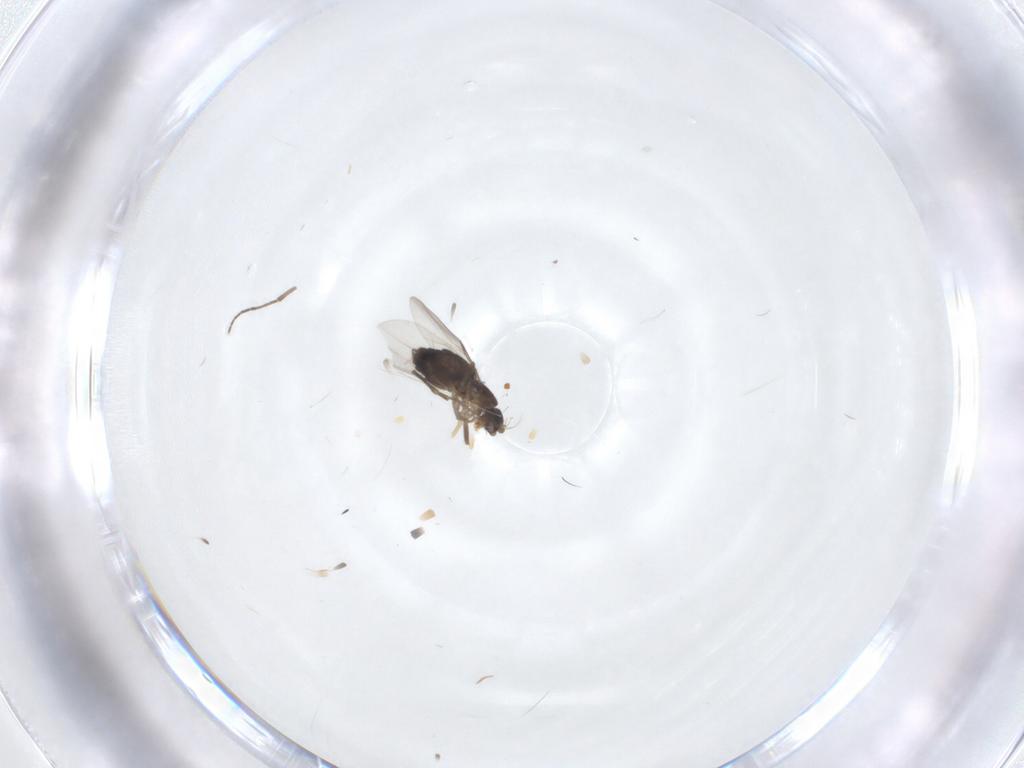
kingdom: Animalia
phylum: Arthropoda
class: Insecta
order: Diptera
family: Phoridae
